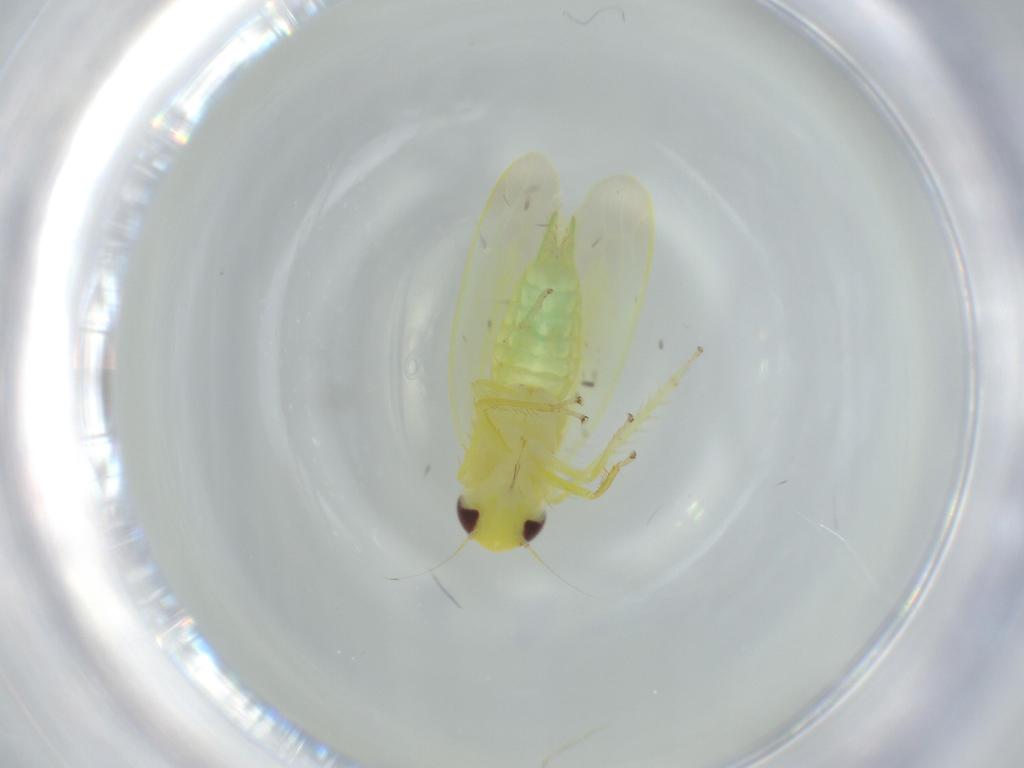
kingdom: Animalia
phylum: Arthropoda
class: Insecta
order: Hemiptera
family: Cicadellidae
